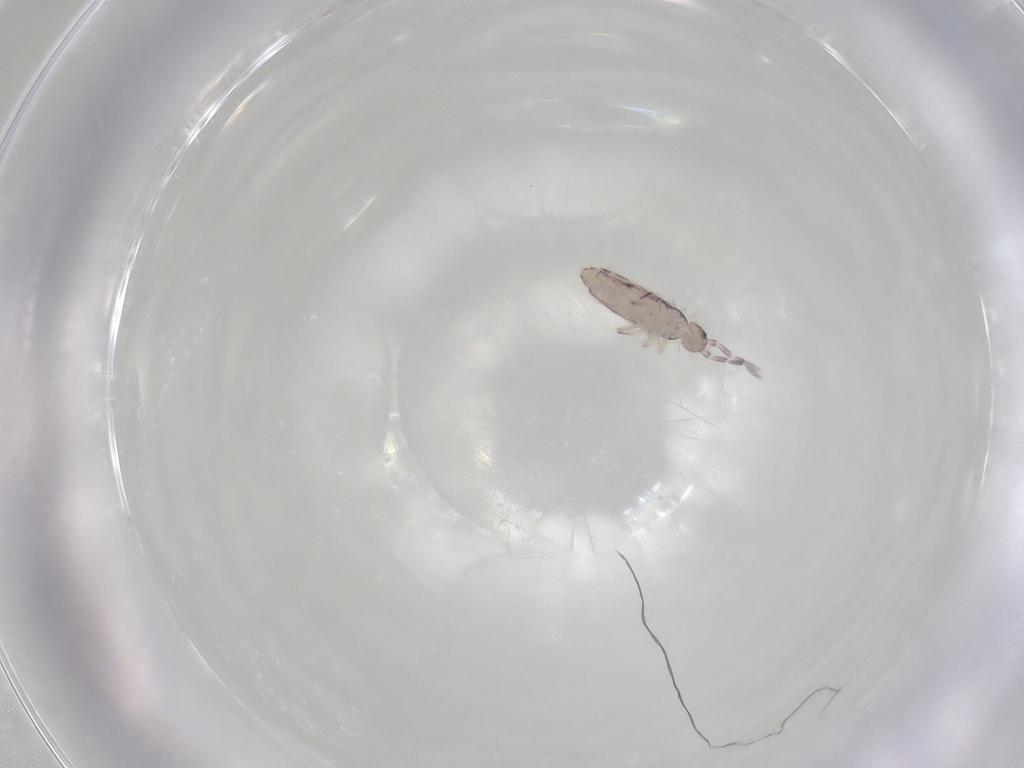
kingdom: Animalia
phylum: Arthropoda
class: Collembola
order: Entomobryomorpha
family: Entomobryidae
